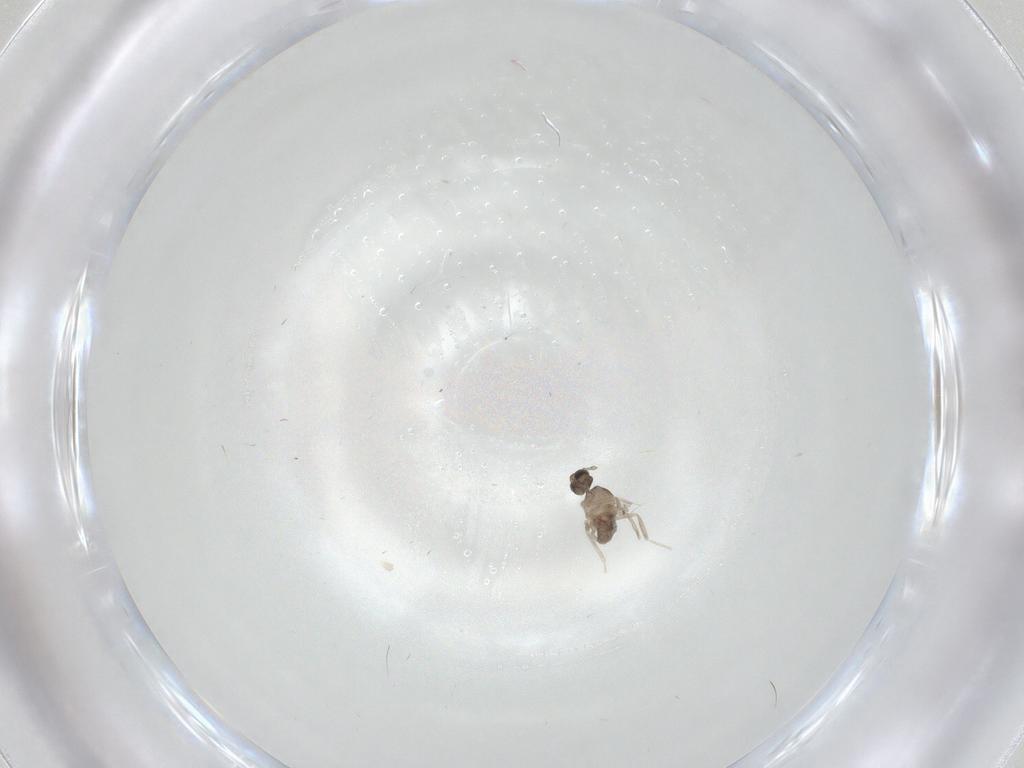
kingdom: Animalia
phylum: Arthropoda
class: Insecta
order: Diptera
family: Cecidomyiidae
